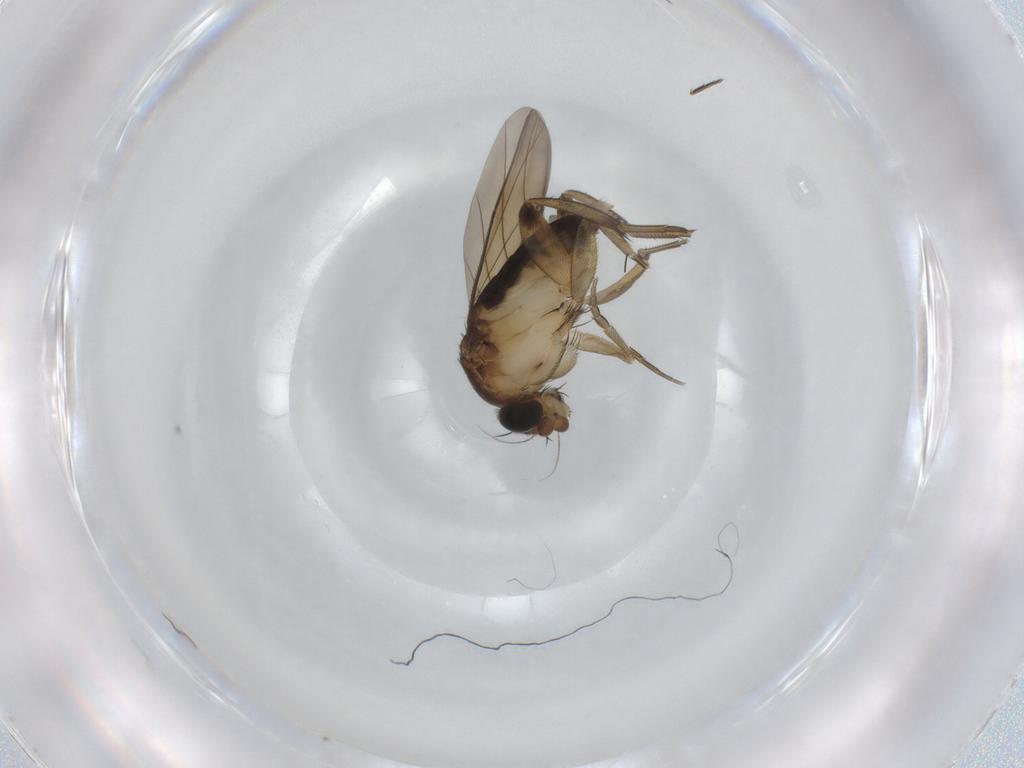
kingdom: Animalia
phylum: Arthropoda
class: Insecta
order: Diptera
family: Phoridae
